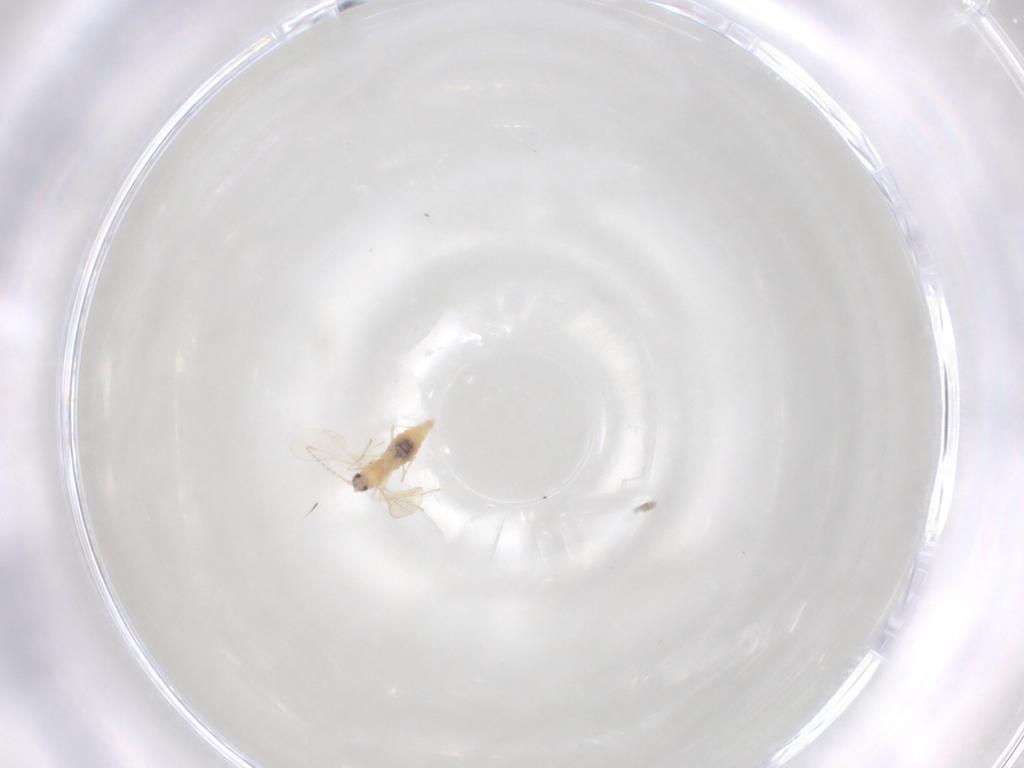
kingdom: Animalia
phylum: Arthropoda
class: Insecta
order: Diptera
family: Cecidomyiidae
